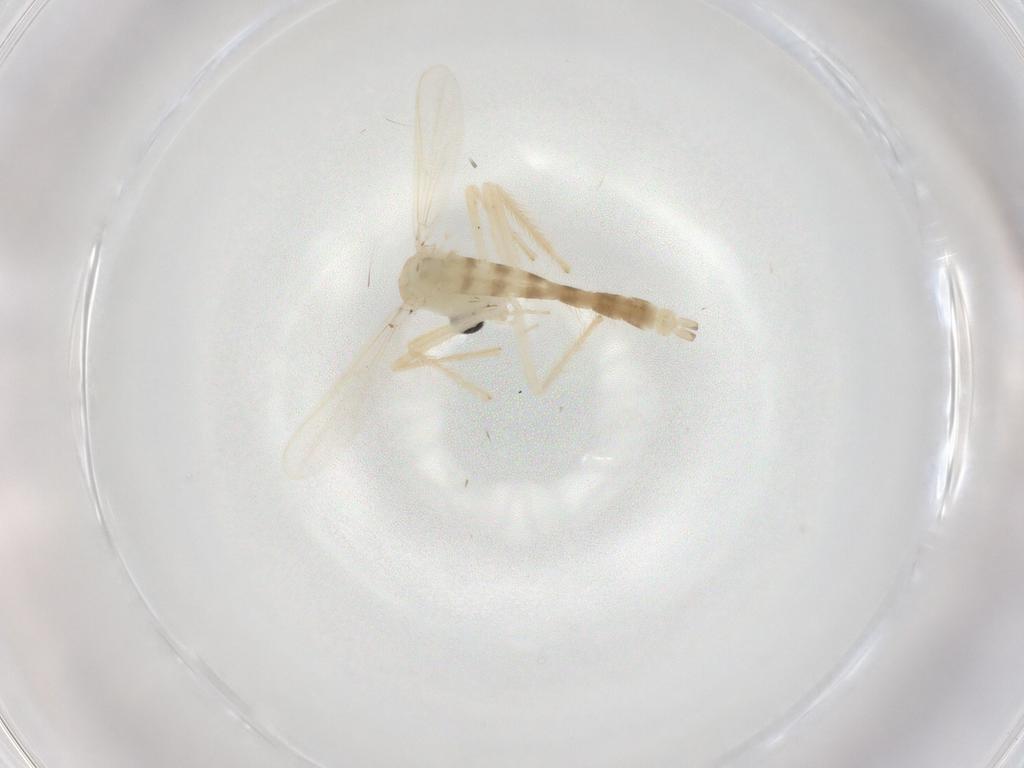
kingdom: Animalia
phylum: Arthropoda
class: Insecta
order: Diptera
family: Chironomidae
